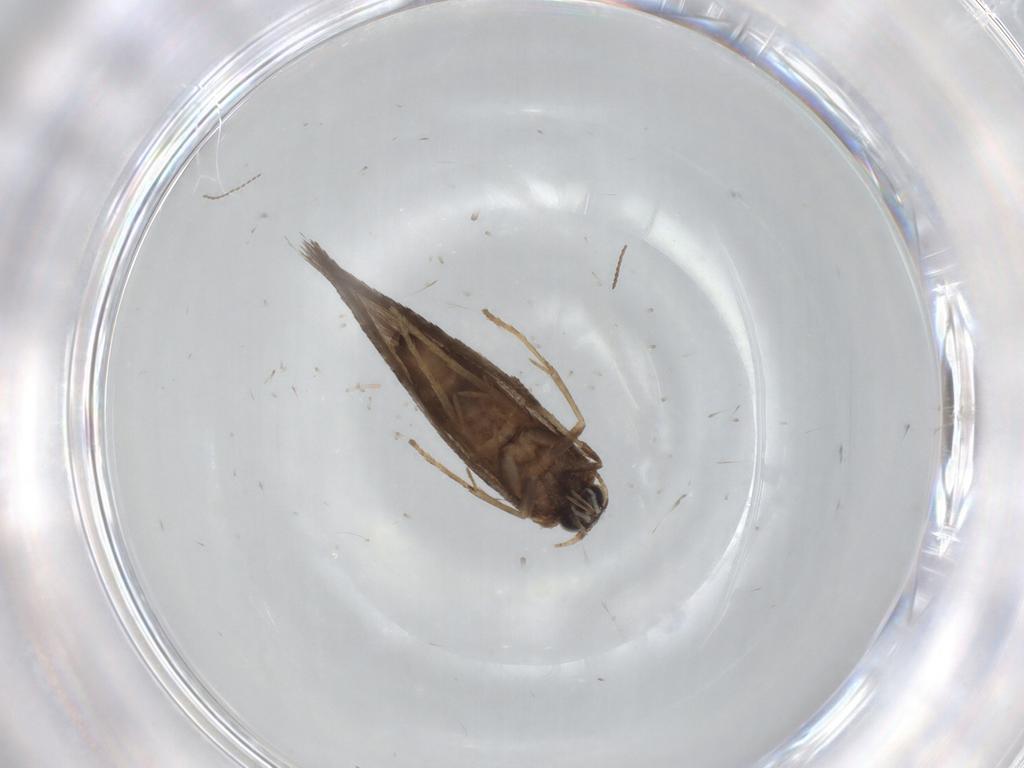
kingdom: Animalia
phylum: Arthropoda
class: Insecta
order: Lepidoptera
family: Nepticulidae
